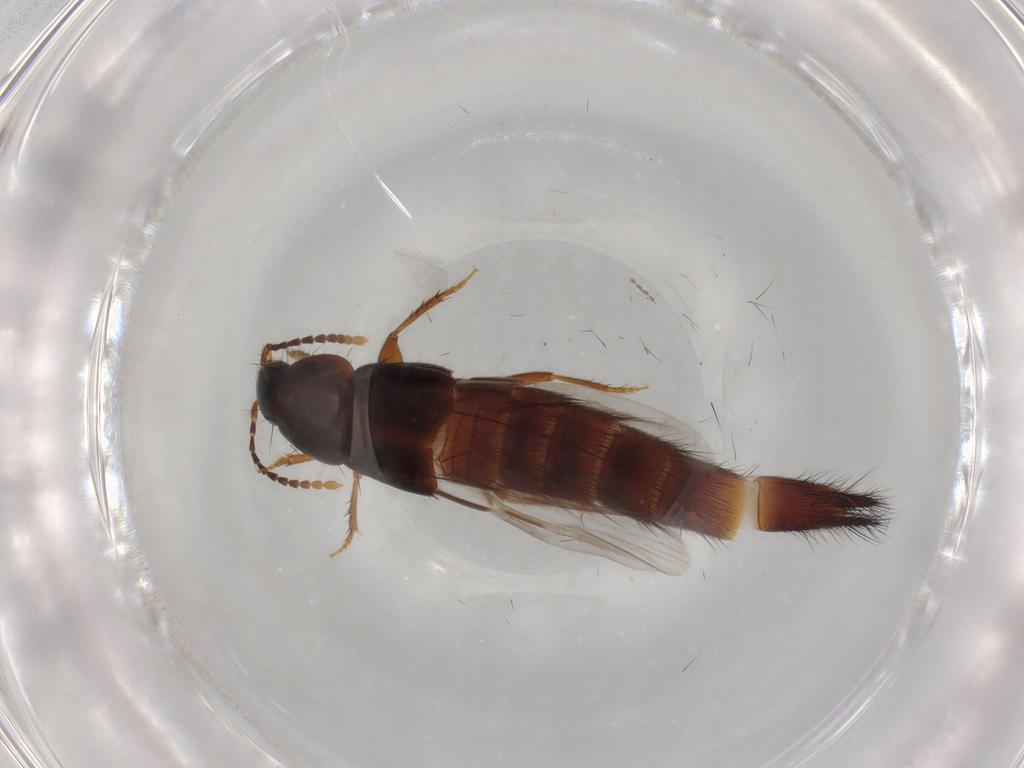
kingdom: Animalia
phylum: Arthropoda
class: Insecta
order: Coleoptera
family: Staphylinidae
